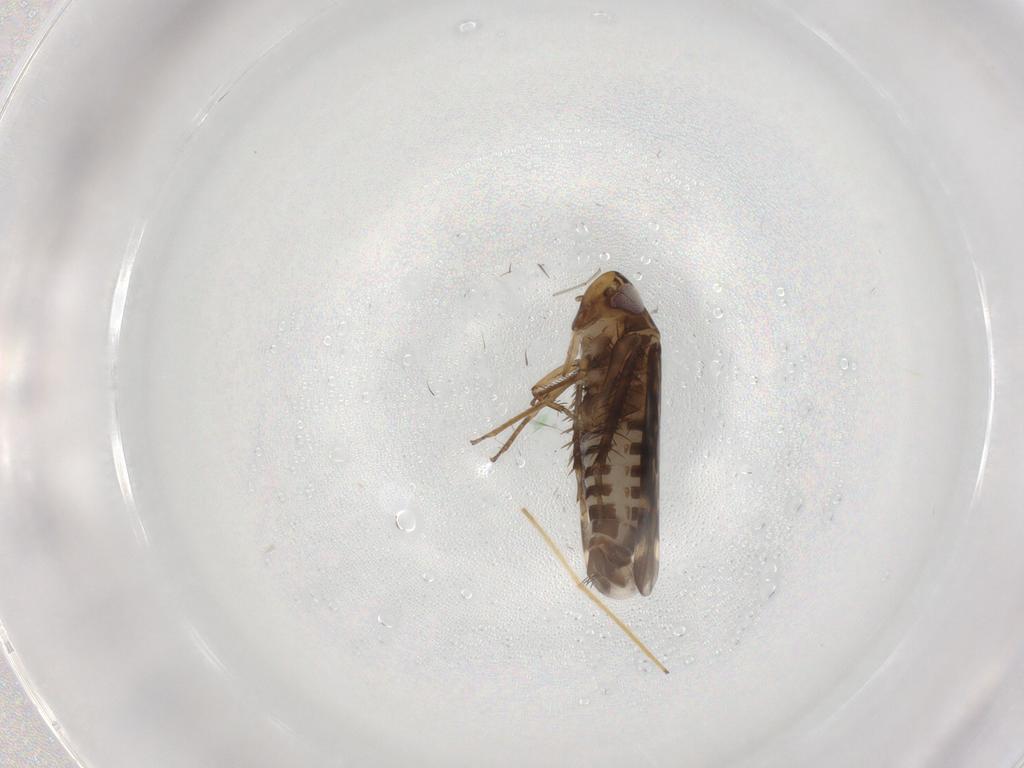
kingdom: Animalia
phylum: Arthropoda
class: Insecta
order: Hemiptera
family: Cicadellidae
